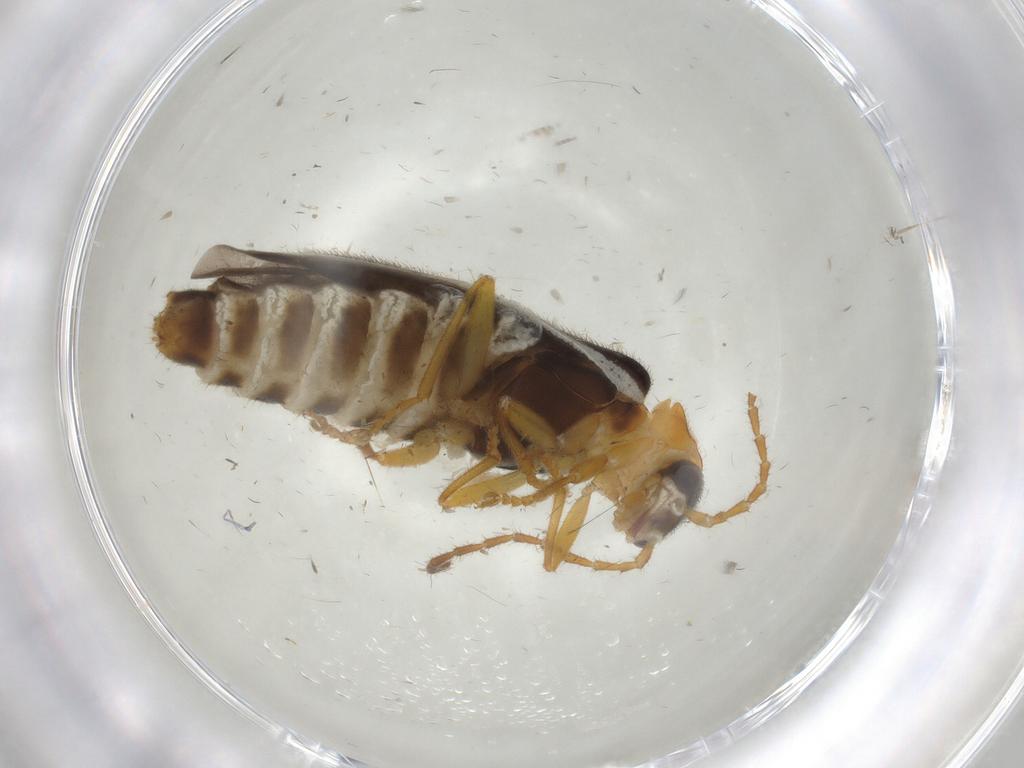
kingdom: Animalia
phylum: Arthropoda
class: Insecta
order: Coleoptera
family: Cantharidae
